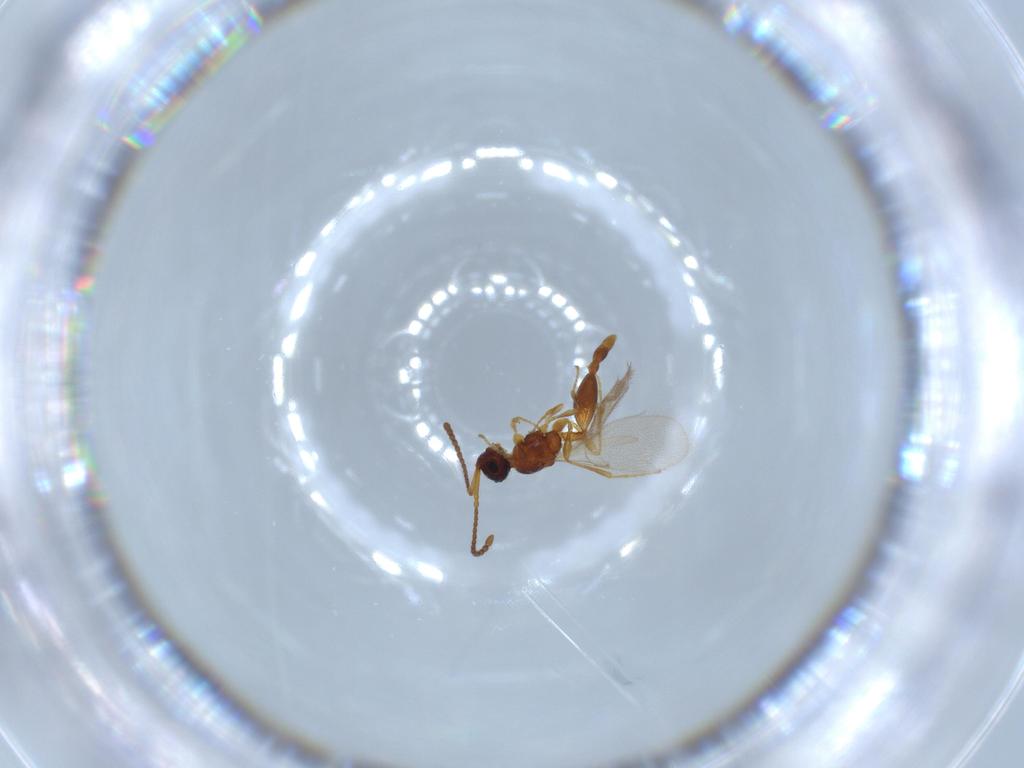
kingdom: Animalia
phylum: Arthropoda
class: Insecta
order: Hymenoptera
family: Diapriidae
